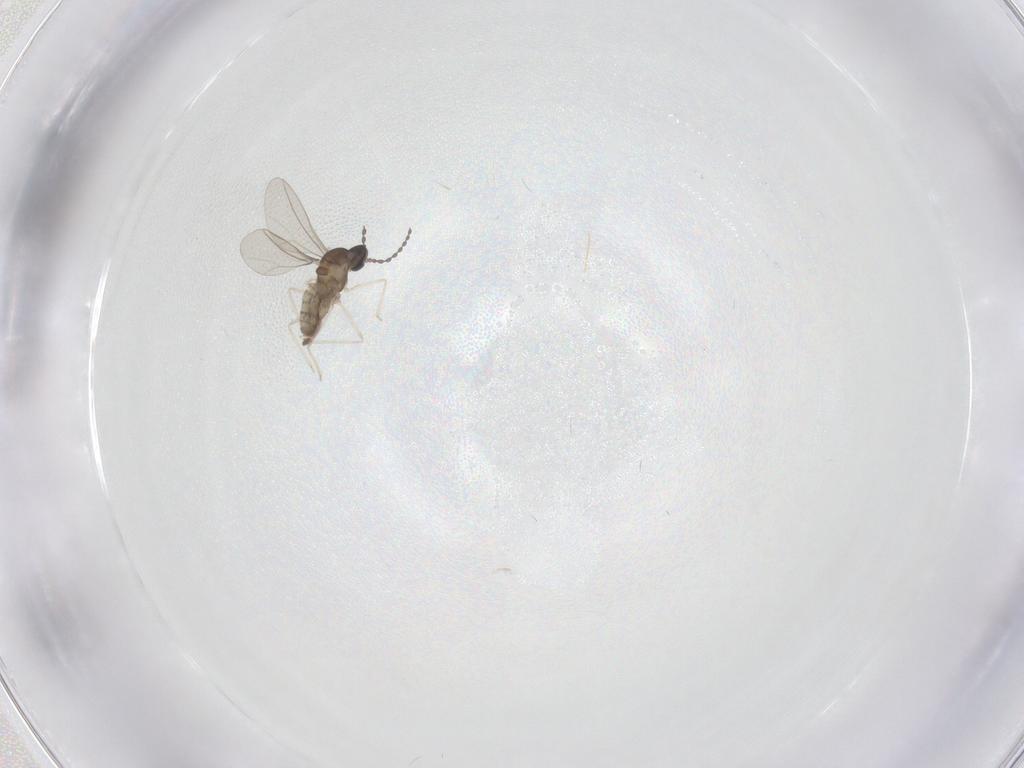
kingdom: Animalia
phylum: Arthropoda
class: Insecta
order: Diptera
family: Cecidomyiidae
